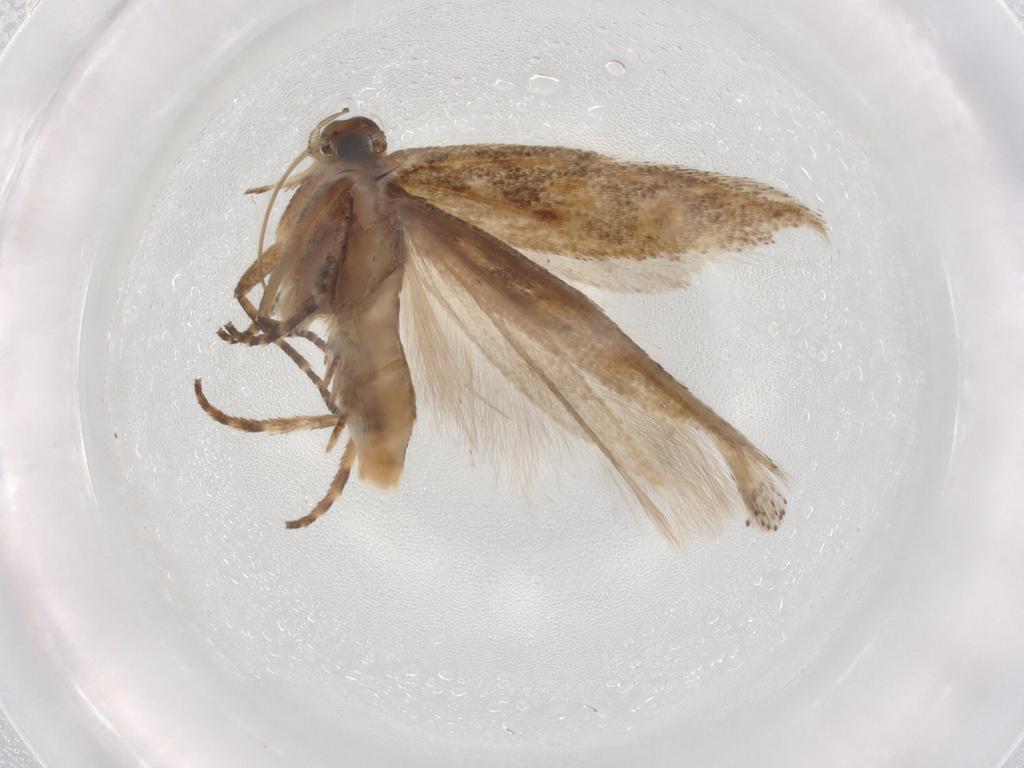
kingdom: Animalia
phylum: Arthropoda
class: Insecta
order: Lepidoptera
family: Gelechiidae
